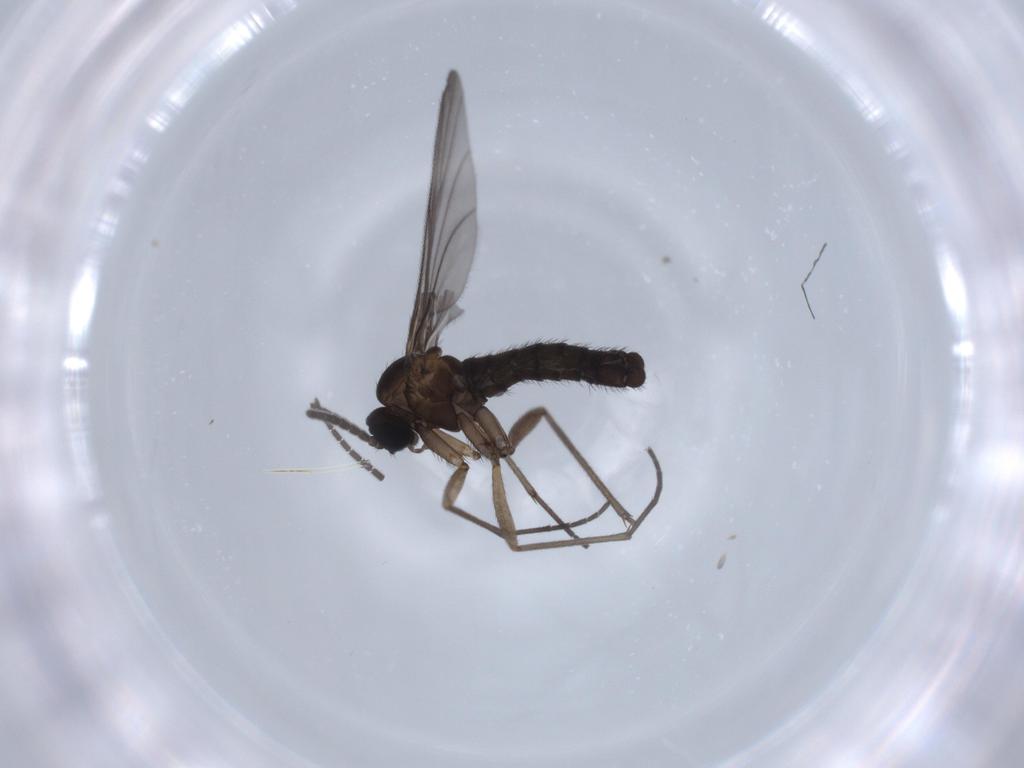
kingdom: Animalia
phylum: Arthropoda
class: Insecta
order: Diptera
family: Sciaridae
